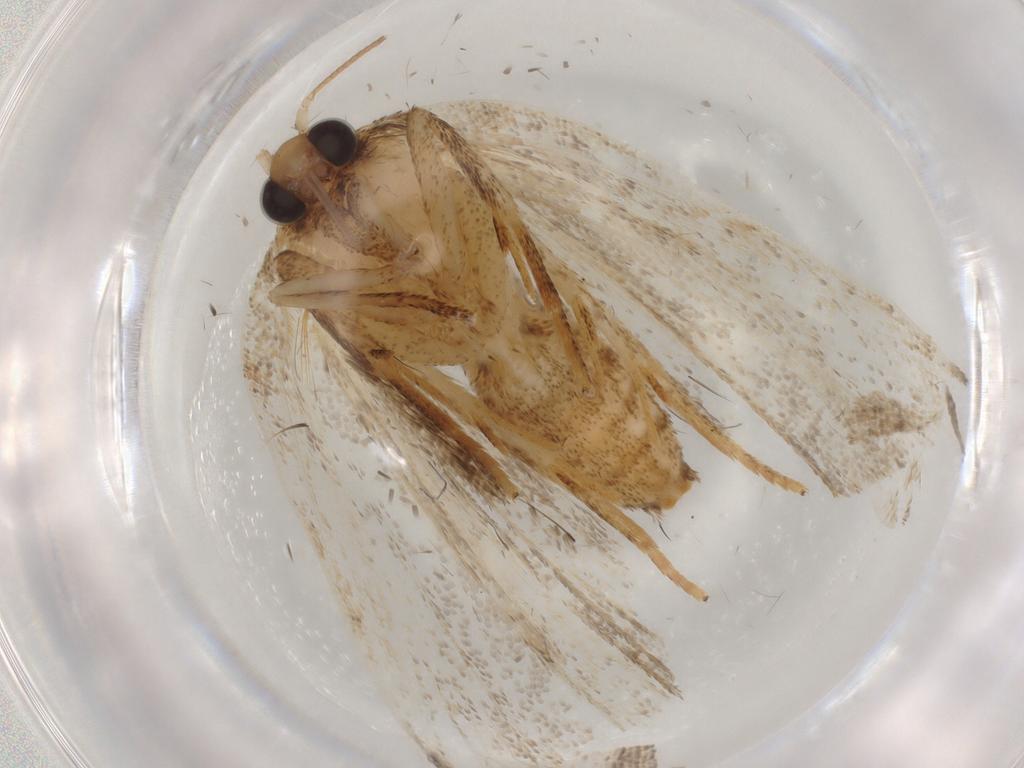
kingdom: Animalia
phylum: Arthropoda
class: Insecta
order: Lepidoptera
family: Tortricidae
